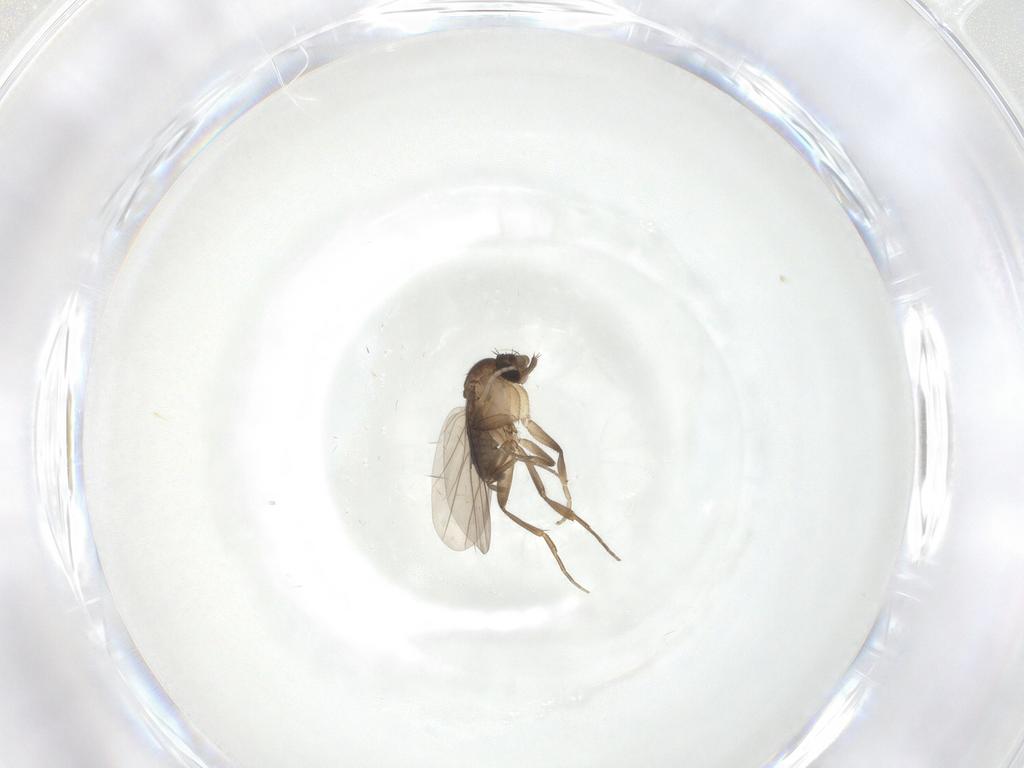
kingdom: Animalia
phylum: Arthropoda
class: Insecta
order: Diptera
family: Phoridae
